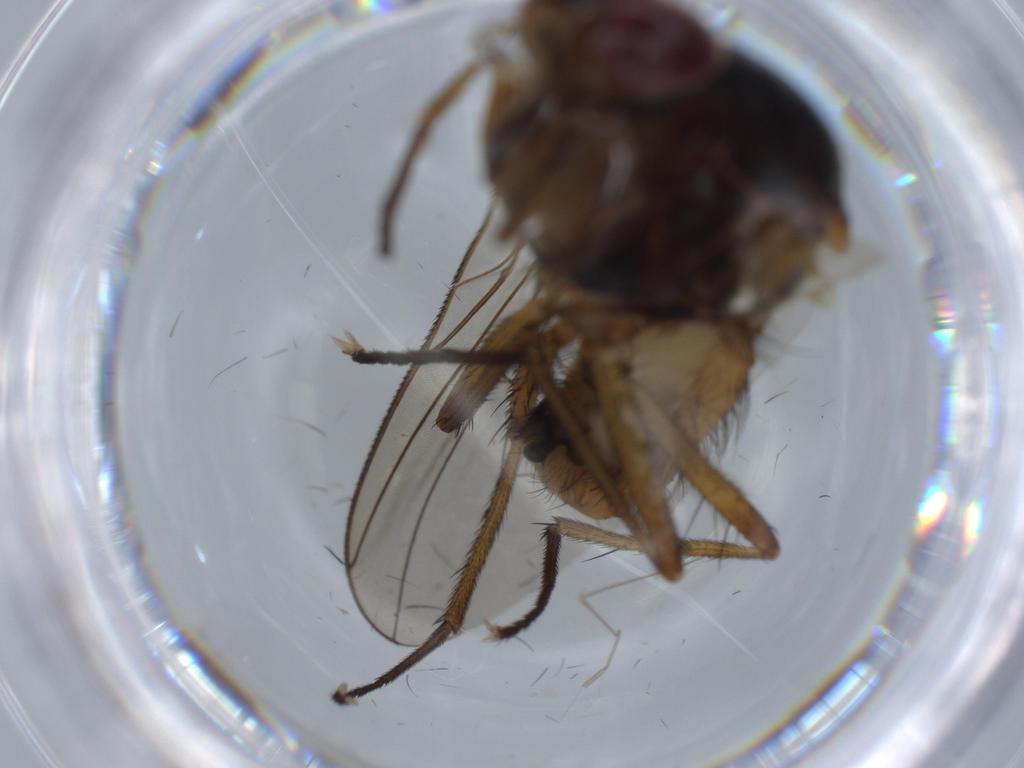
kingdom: Animalia
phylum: Arthropoda
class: Insecta
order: Diptera
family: Anthomyiidae
